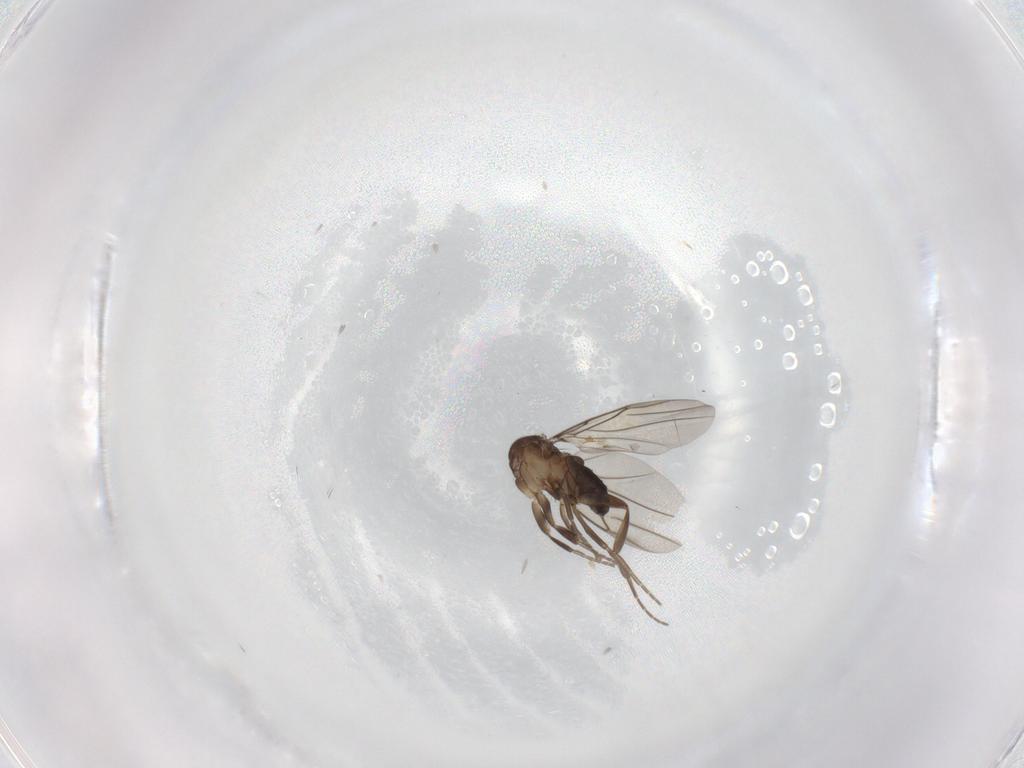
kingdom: Animalia
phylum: Arthropoda
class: Insecta
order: Diptera
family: Phoridae
